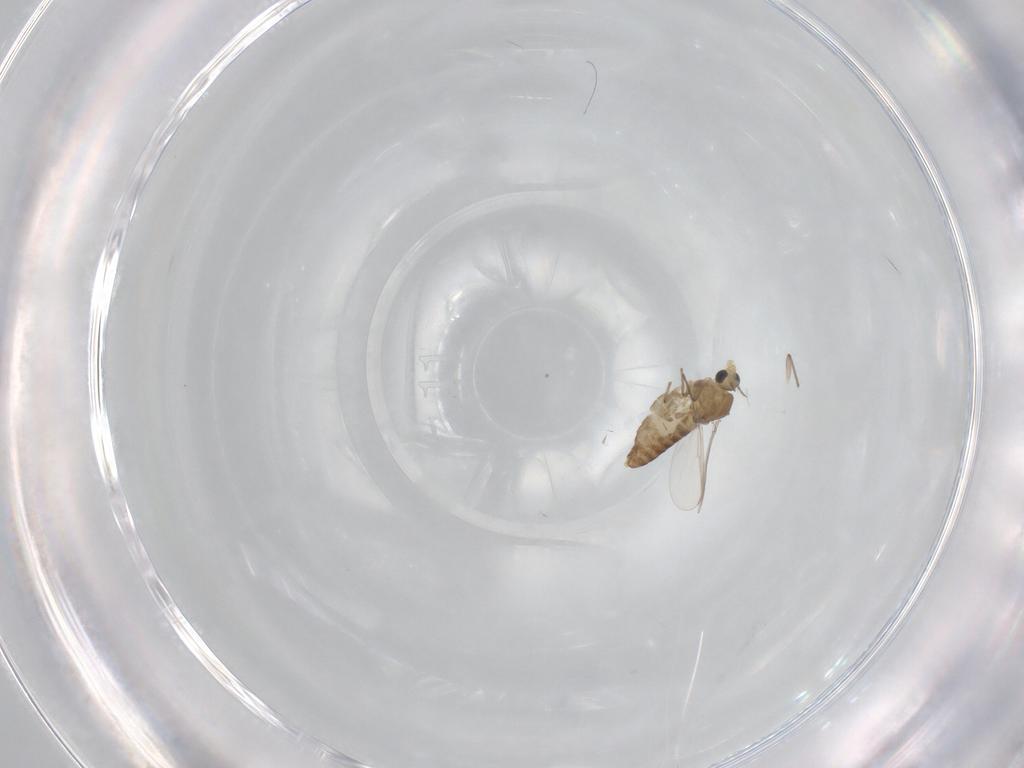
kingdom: Animalia
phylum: Arthropoda
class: Insecta
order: Diptera
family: Chironomidae
